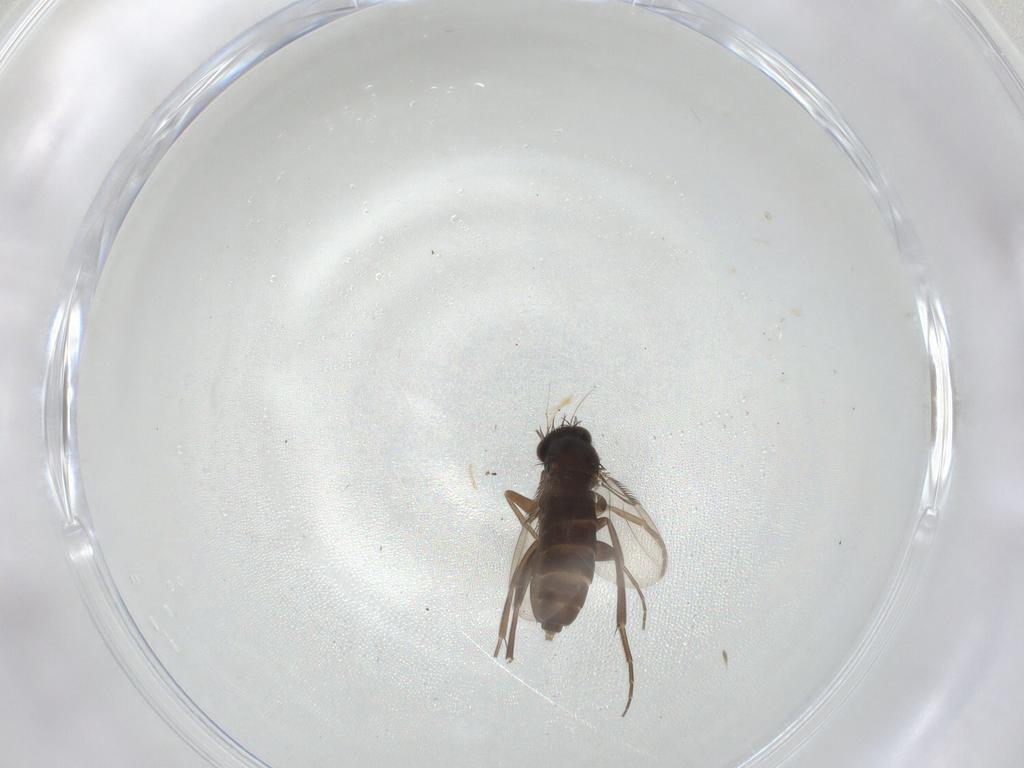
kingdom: Animalia
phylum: Arthropoda
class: Insecta
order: Diptera
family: Phoridae
